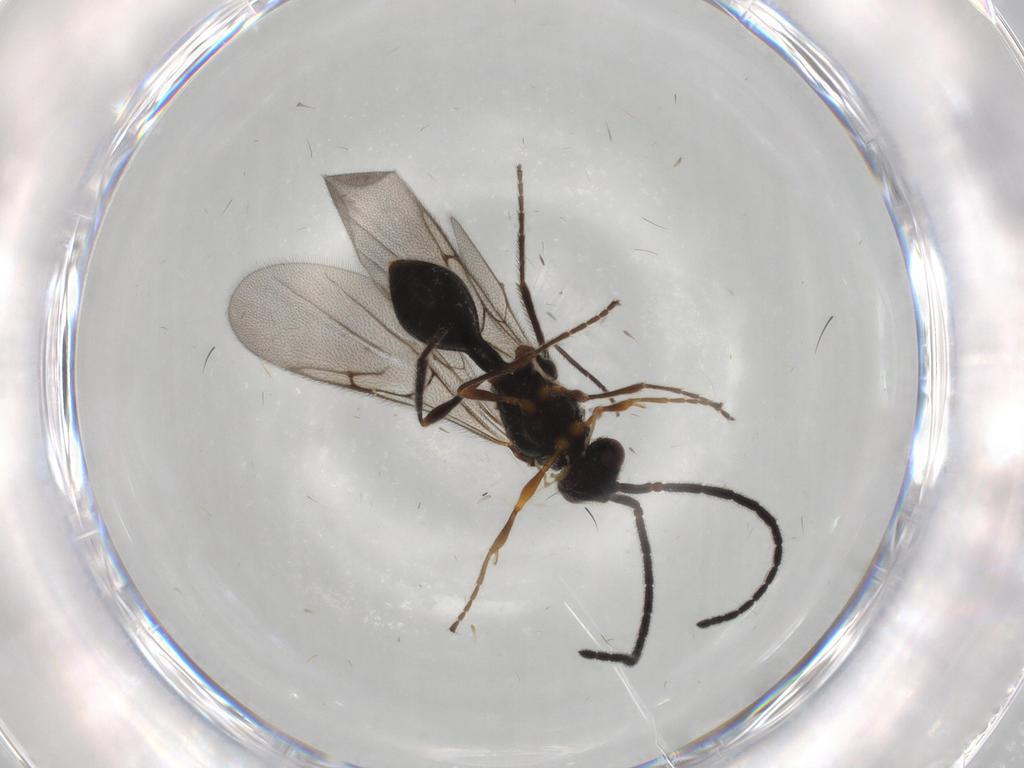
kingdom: Animalia
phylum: Arthropoda
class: Insecta
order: Hymenoptera
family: Diapriidae
